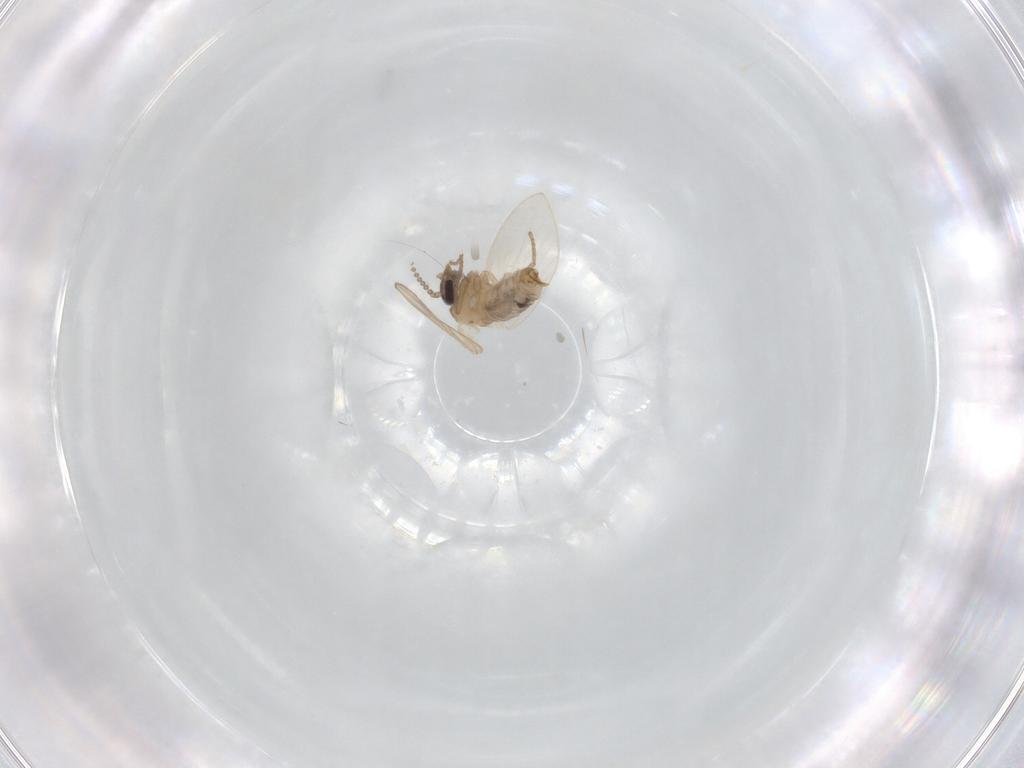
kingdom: Animalia
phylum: Arthropoda
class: Insecta
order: Diptera
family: Psychodidae
